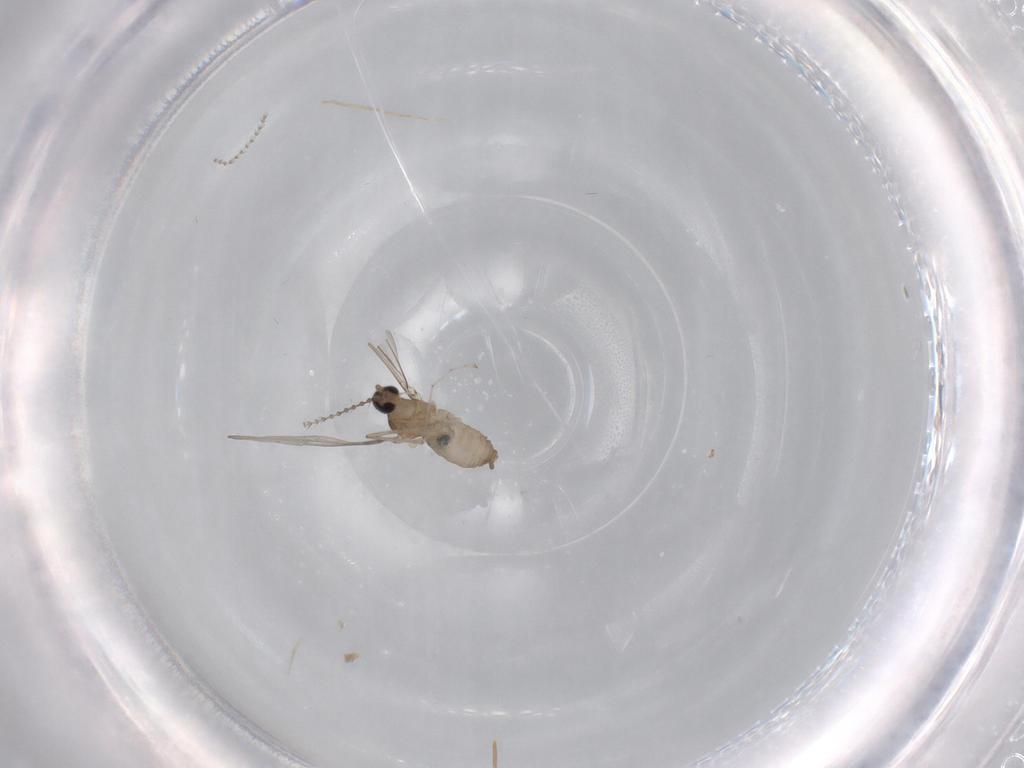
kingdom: Animalia
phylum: Arthropoda
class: Insecta
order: Diptera
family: Cecidomyiidae
